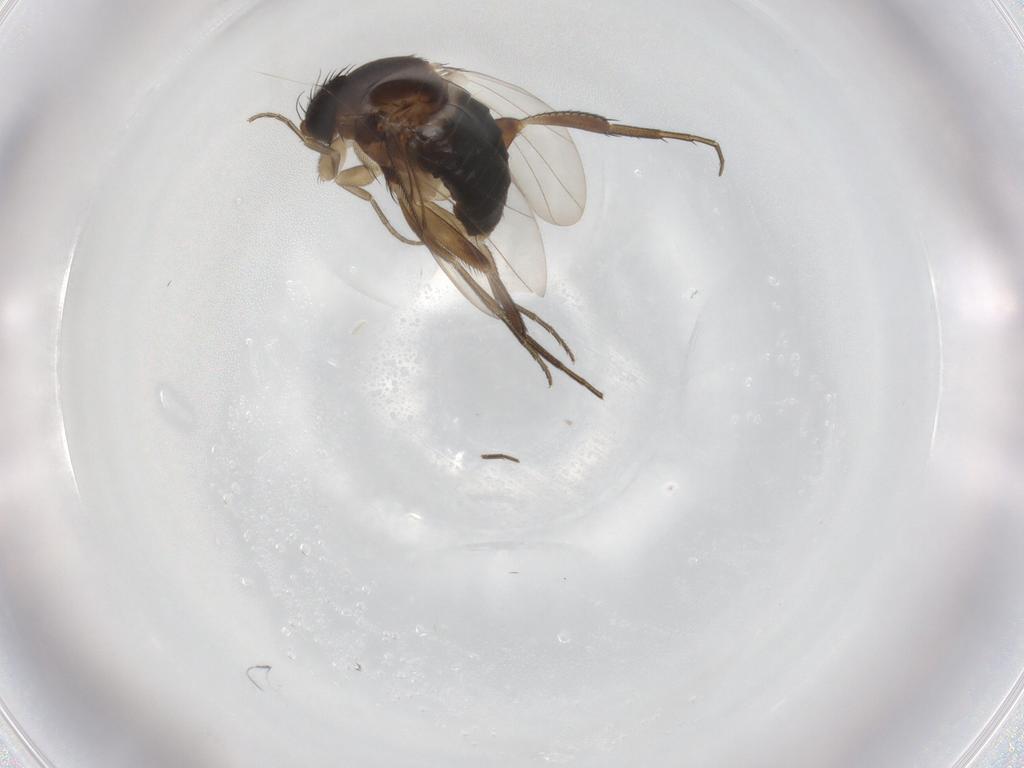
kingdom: Animalia
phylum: Arthropoda
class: Insecta
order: Diptera
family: Phoridae
